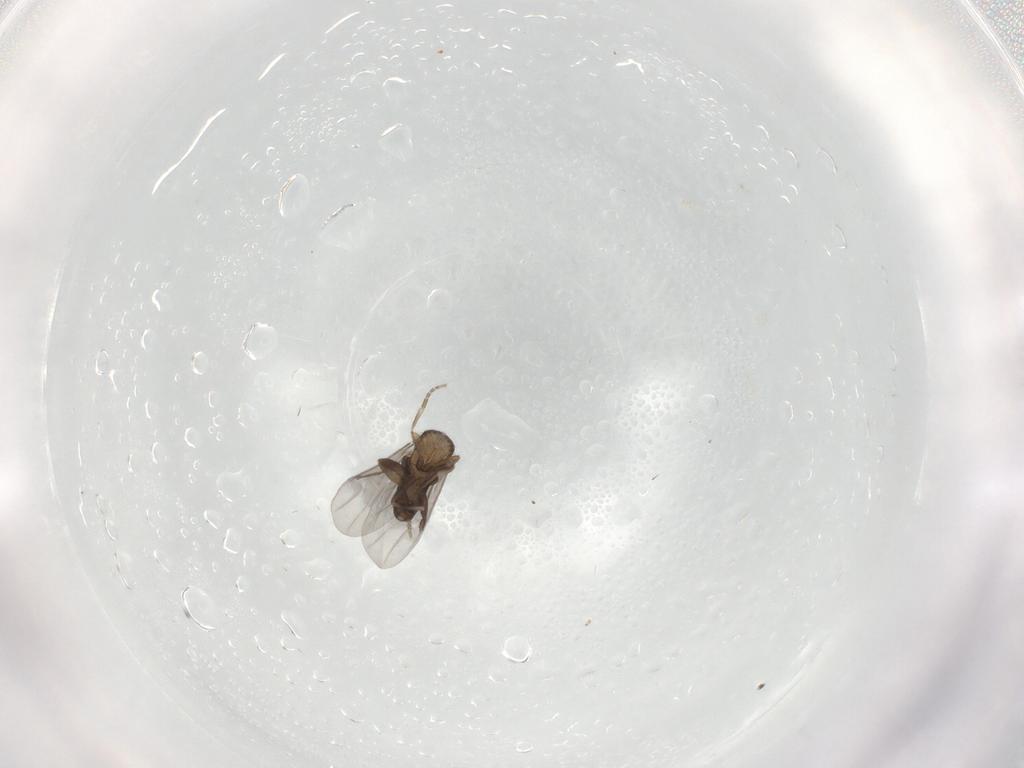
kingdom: Animalia
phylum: Arthropoda
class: Insecta
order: Diptera
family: Psychodidae
